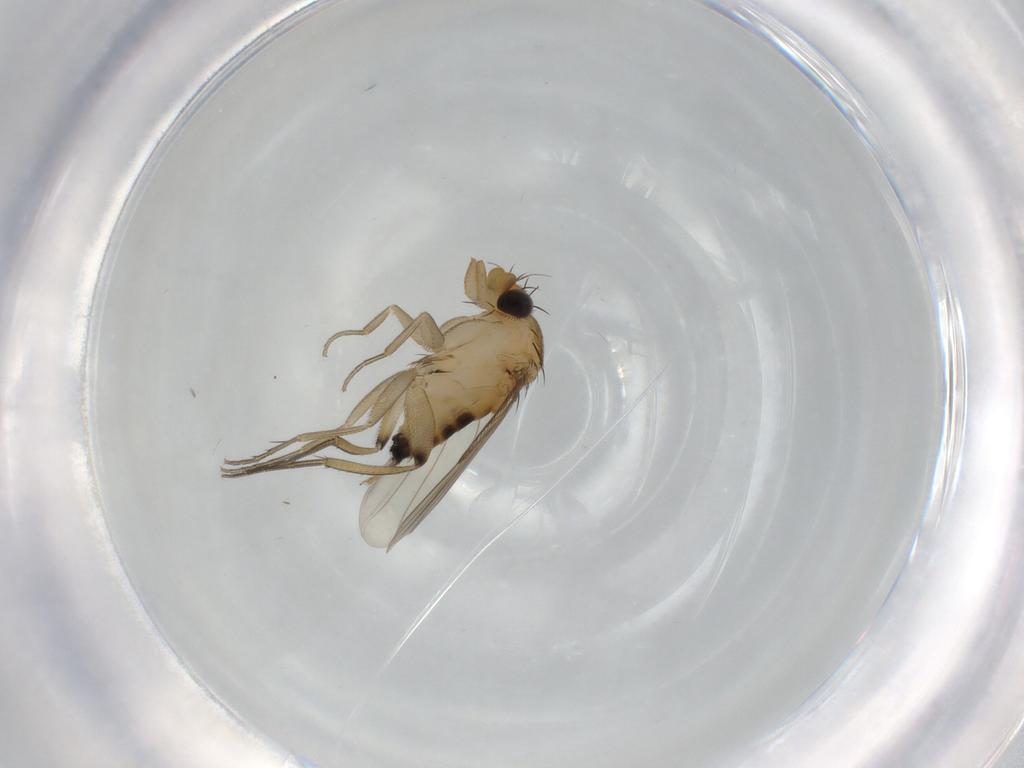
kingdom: Animalia
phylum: Arthropoda
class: Insecta
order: Diptera
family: Phoridae
